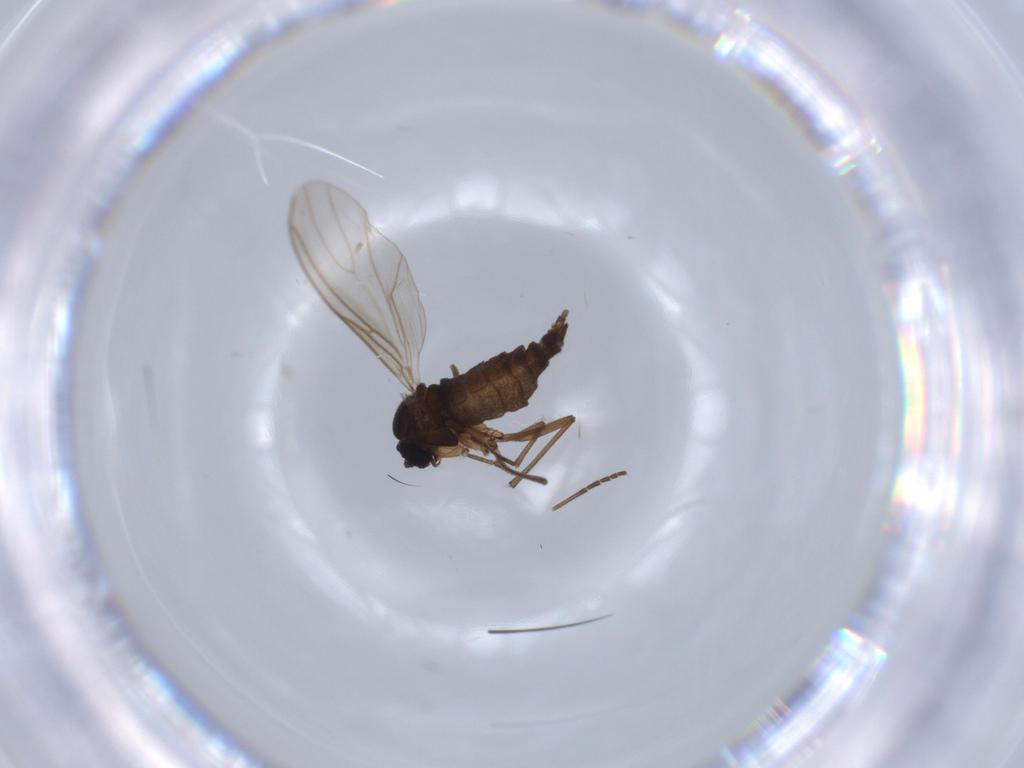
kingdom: Animalia
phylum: Arthropoda
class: Insecta
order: Diptera
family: Sciaridae
